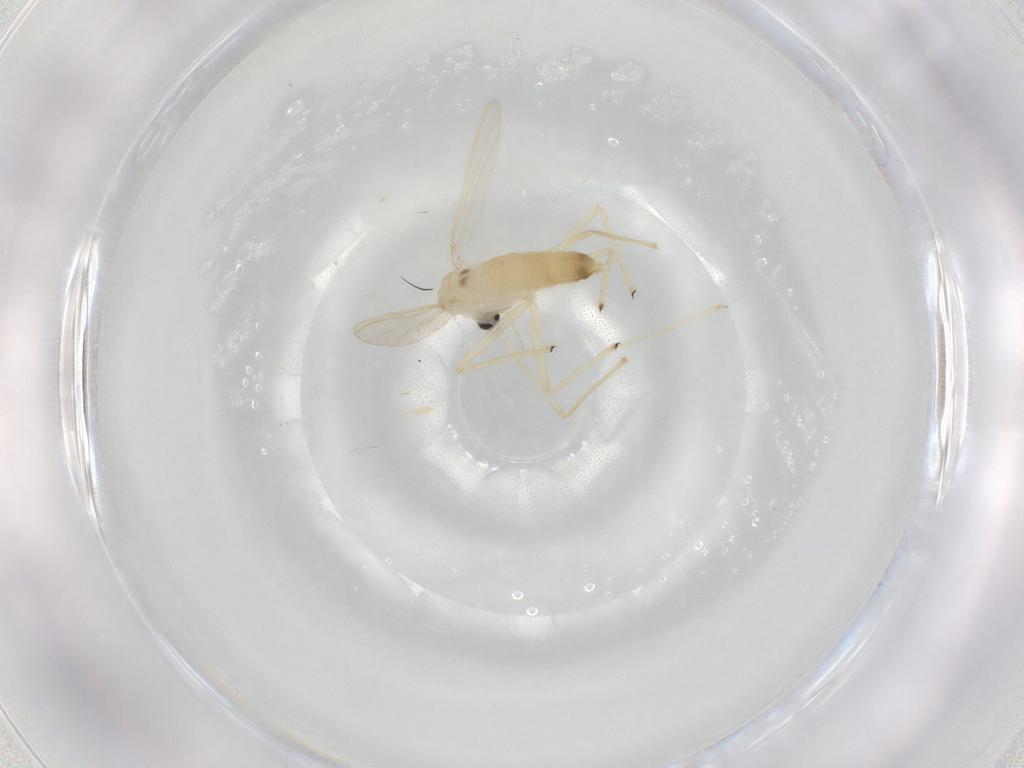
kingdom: Animalia
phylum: Arthropoda
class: Insecta
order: Diptera
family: Chironomidae
